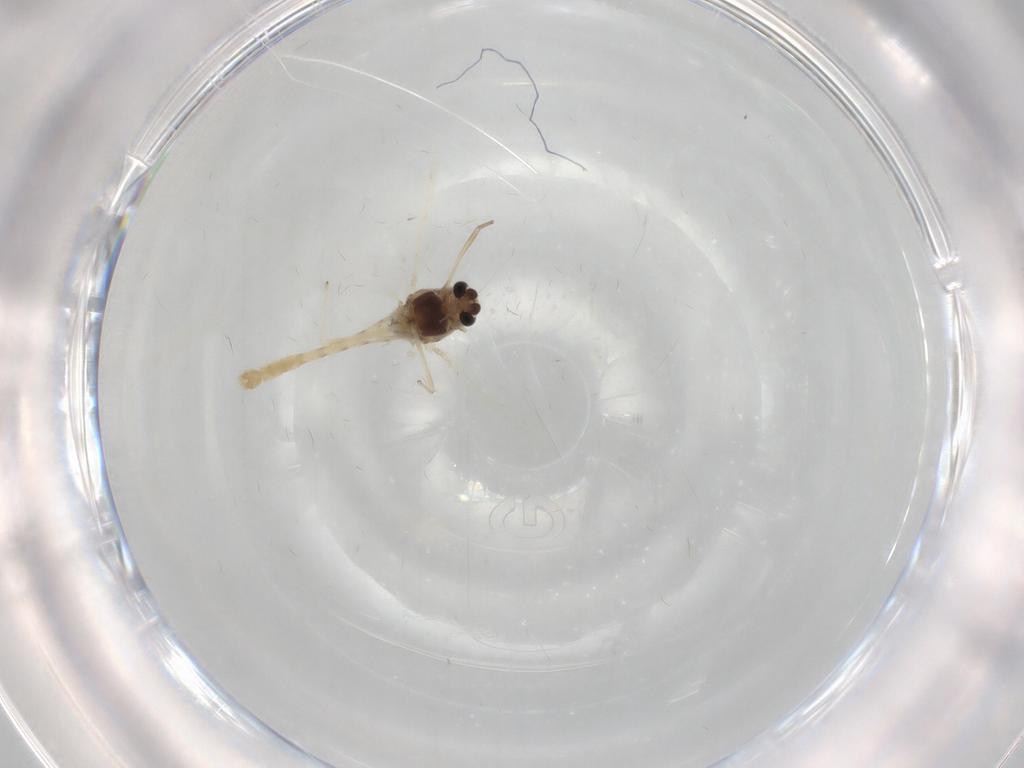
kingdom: Animalia
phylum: Arthropoda
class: Insecta
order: Diptera
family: Chironomidae
